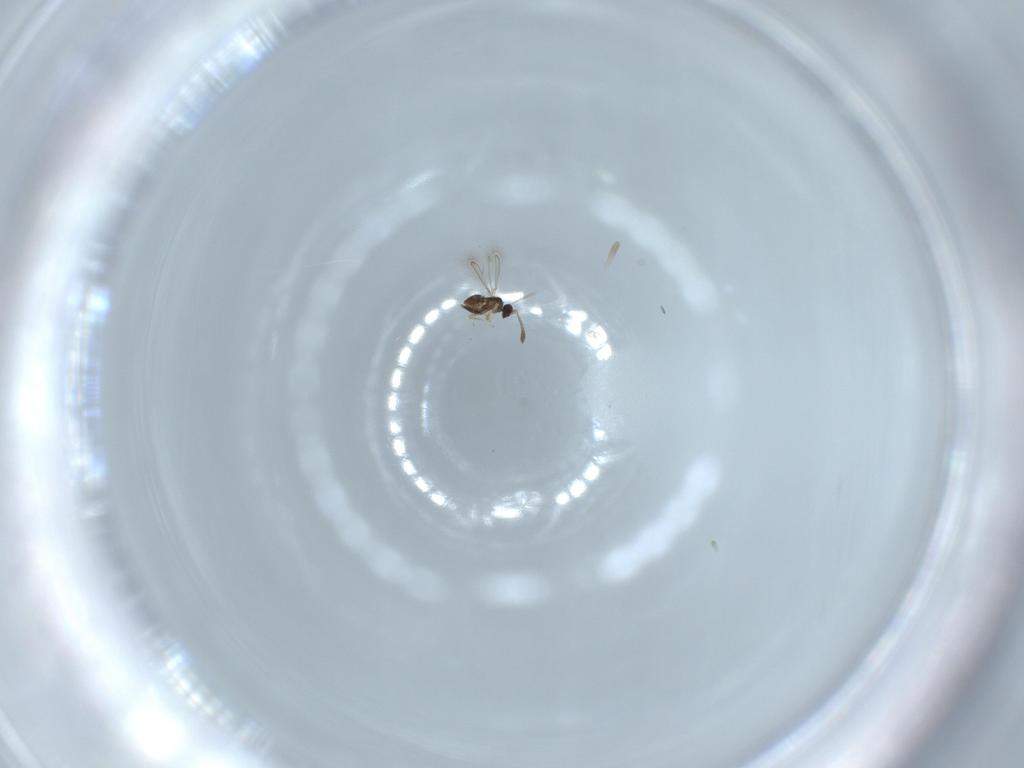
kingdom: Animalia
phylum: Arthropoda
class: Insecta
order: Hymenoptera
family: Mymaridae
